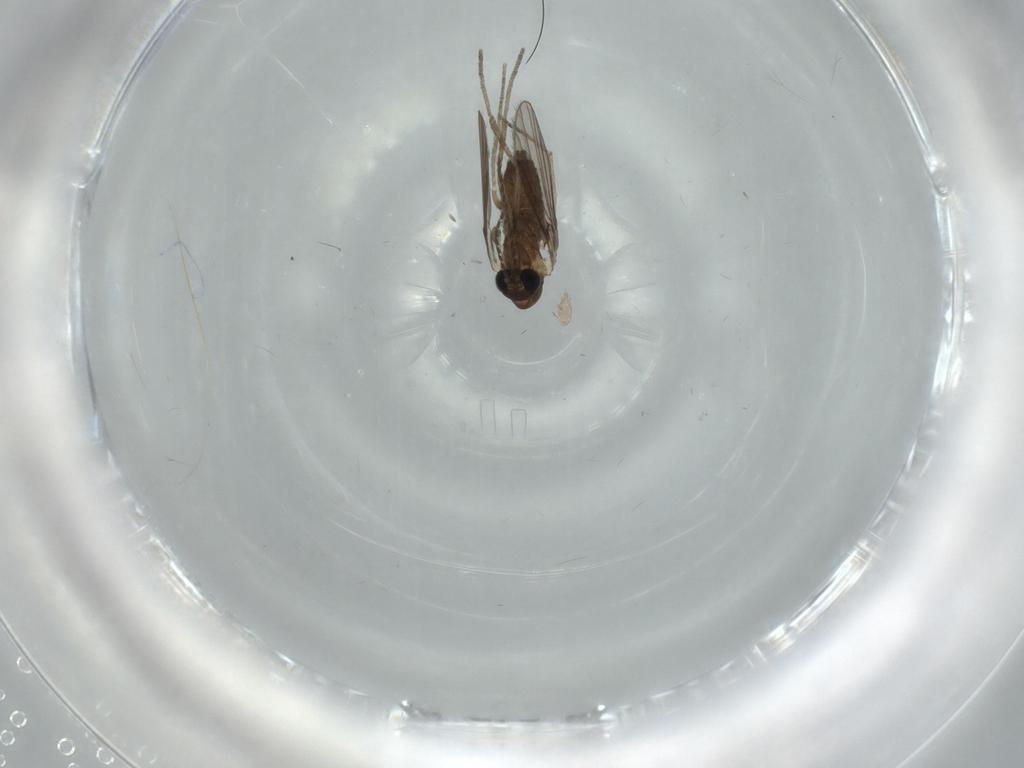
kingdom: Animalia
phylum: Arthropoda
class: Insecta
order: Diptera
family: Psychodidae
